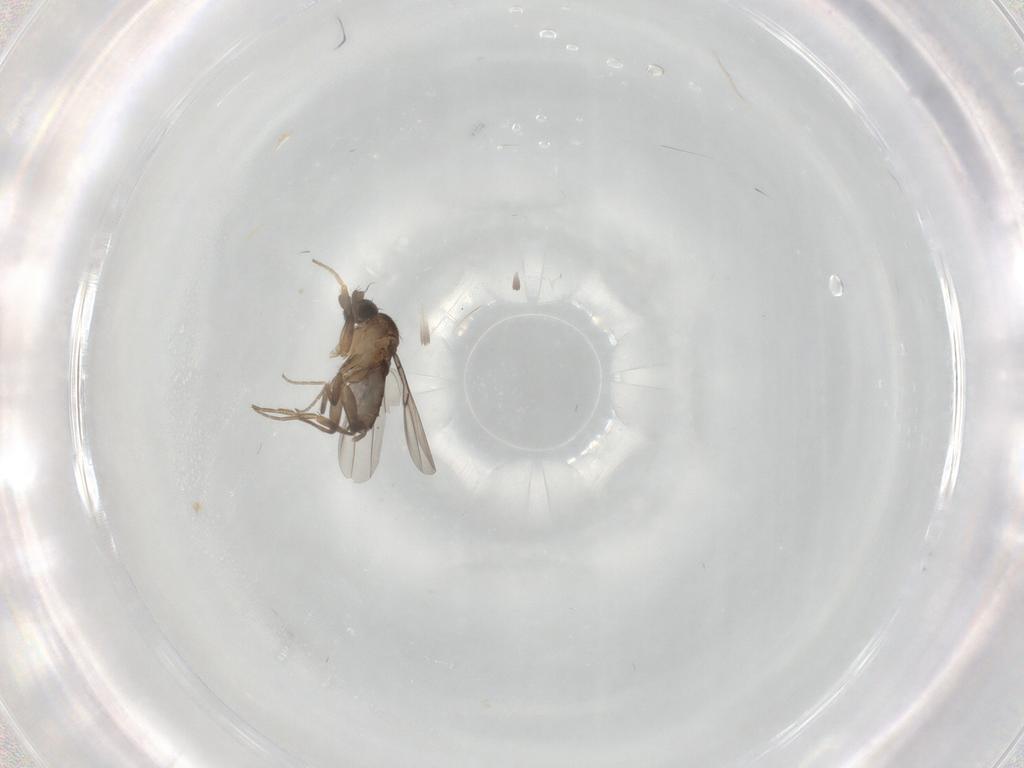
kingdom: Animalia
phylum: Arthropoda
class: Insecta
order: Diptera
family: Phoridae
